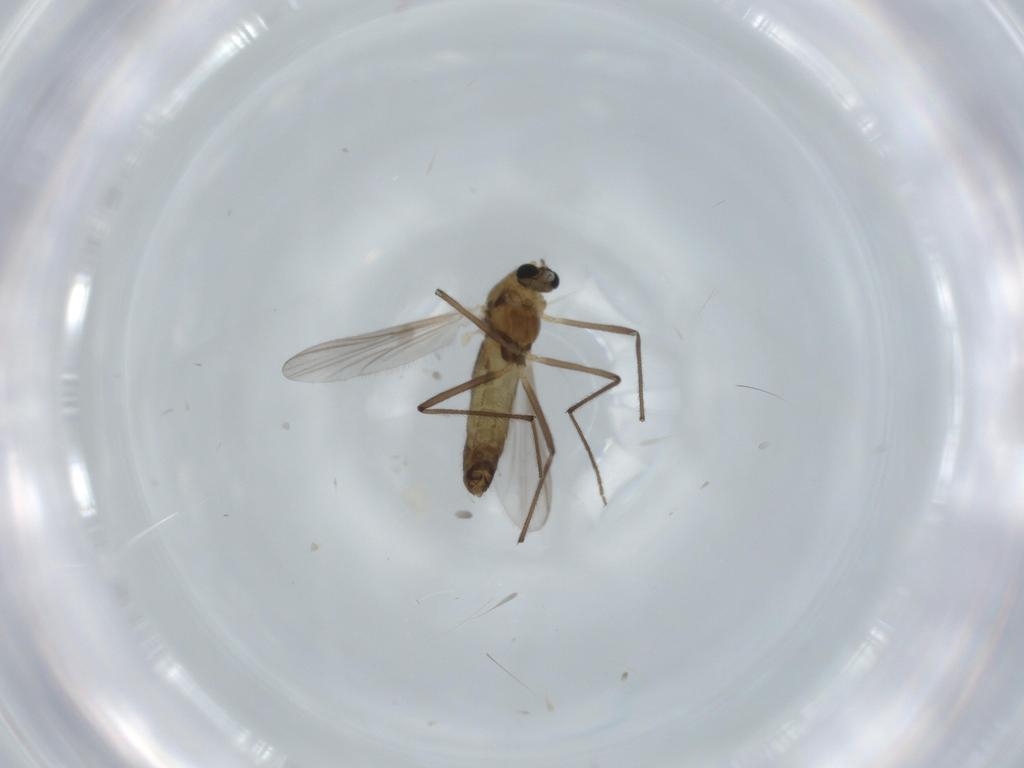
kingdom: Animalia
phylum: Arthropoda
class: Insecta
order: Diptera
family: Chironomidae
